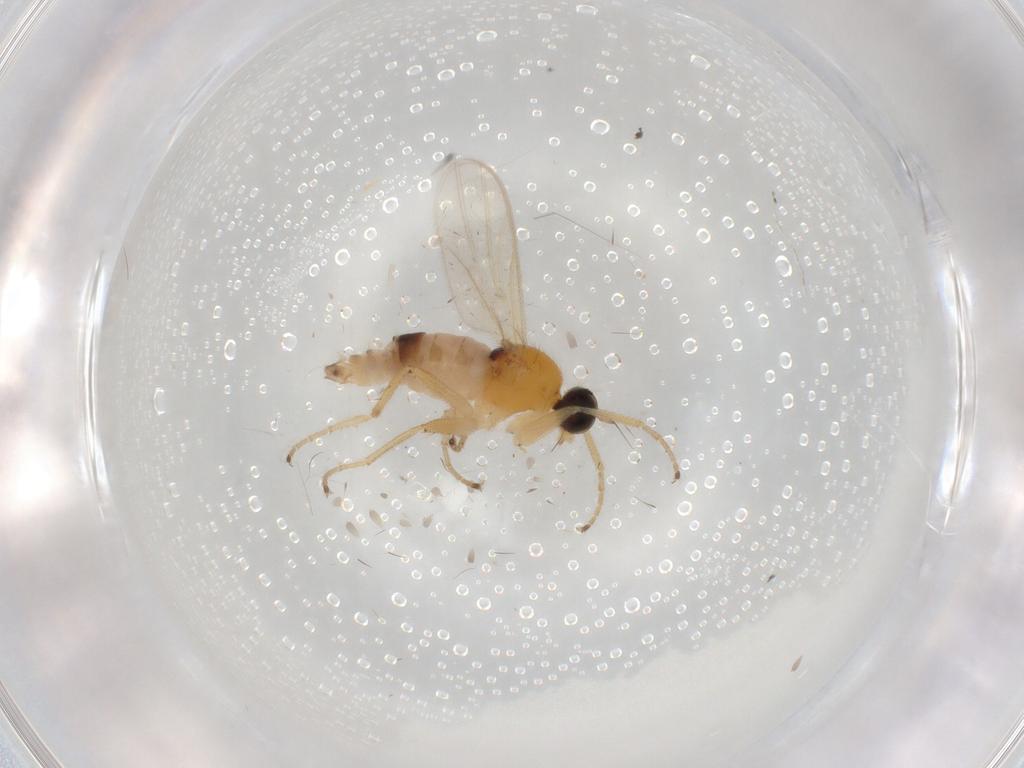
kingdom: Animalia
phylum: Arthropoda
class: Insecta
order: Diptera
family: Hybotidae
